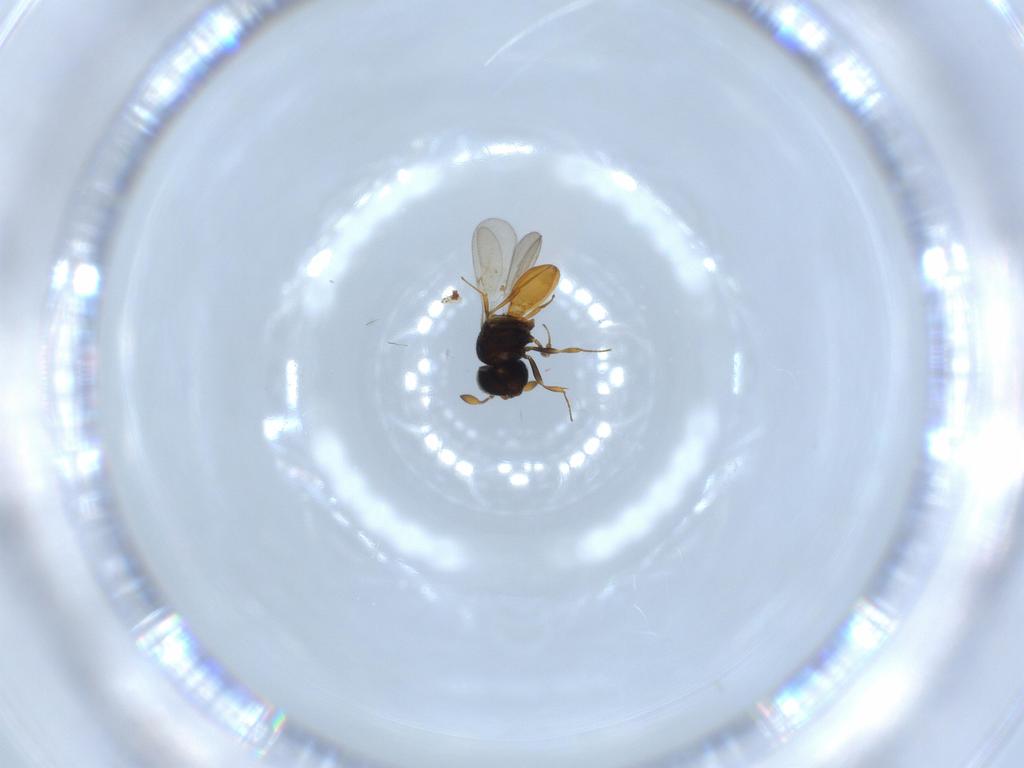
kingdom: Animalia
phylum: Arthropoda
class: Insecta
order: Hymenoptera
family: Scelionidae
